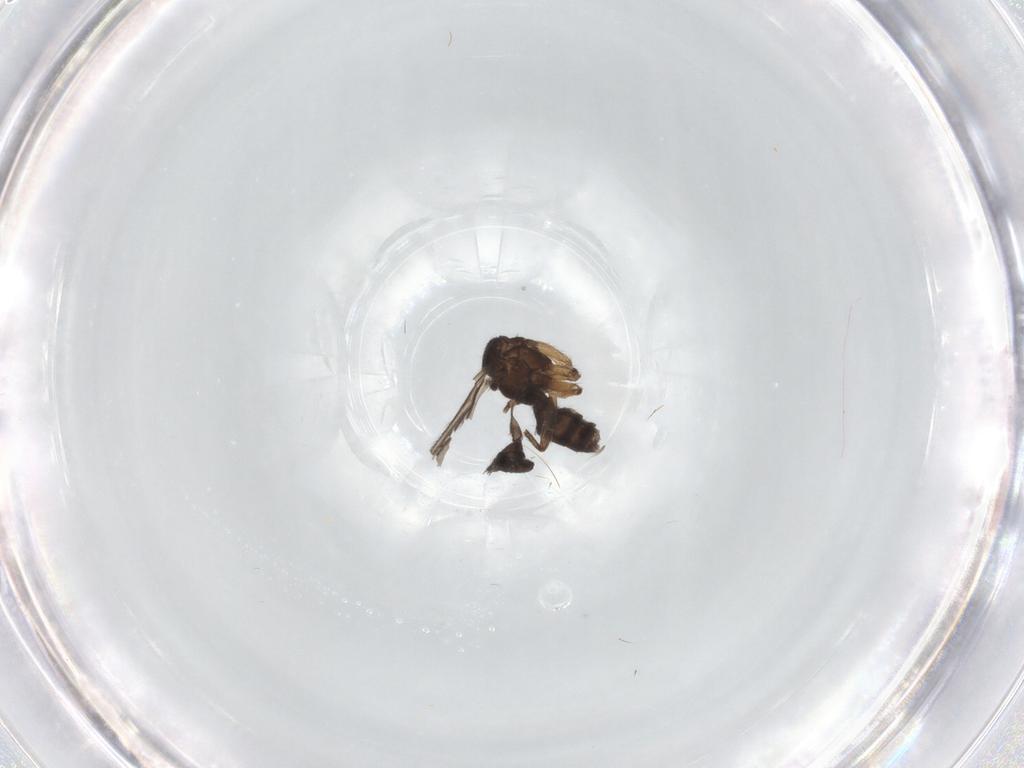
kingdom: Animalia
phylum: Arthropoda
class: Insecta
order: Diptera
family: Sciaridae
